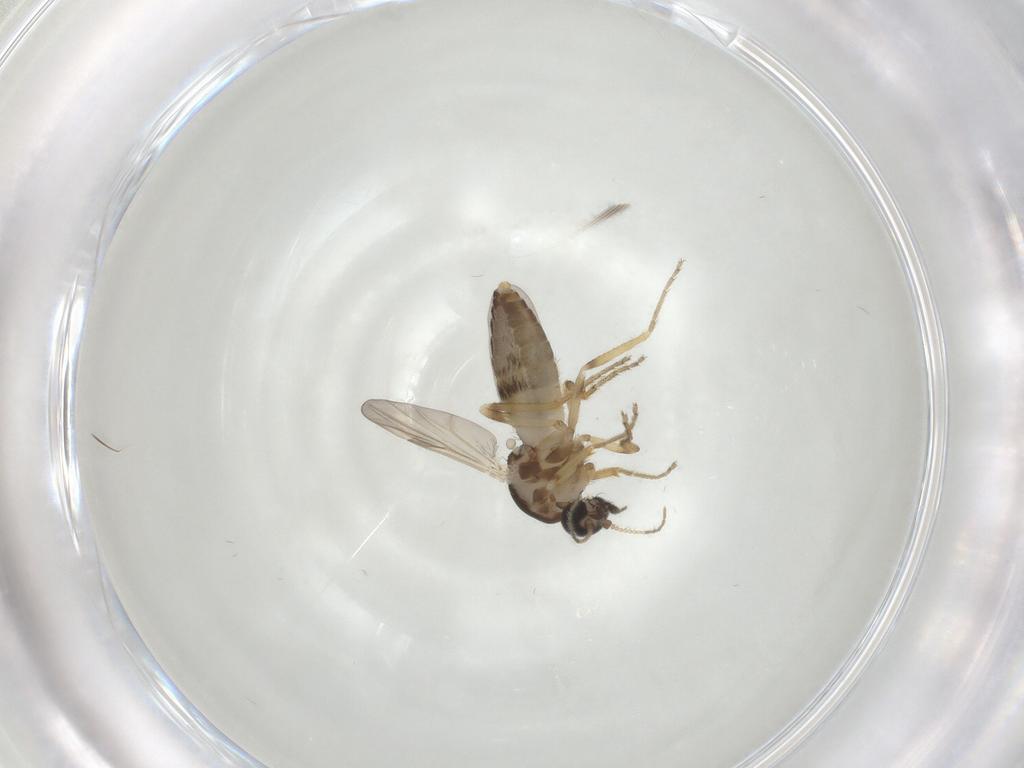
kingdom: Animalia
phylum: Arthropoda
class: Insecta
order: Diptera
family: Ceratopogonidae
